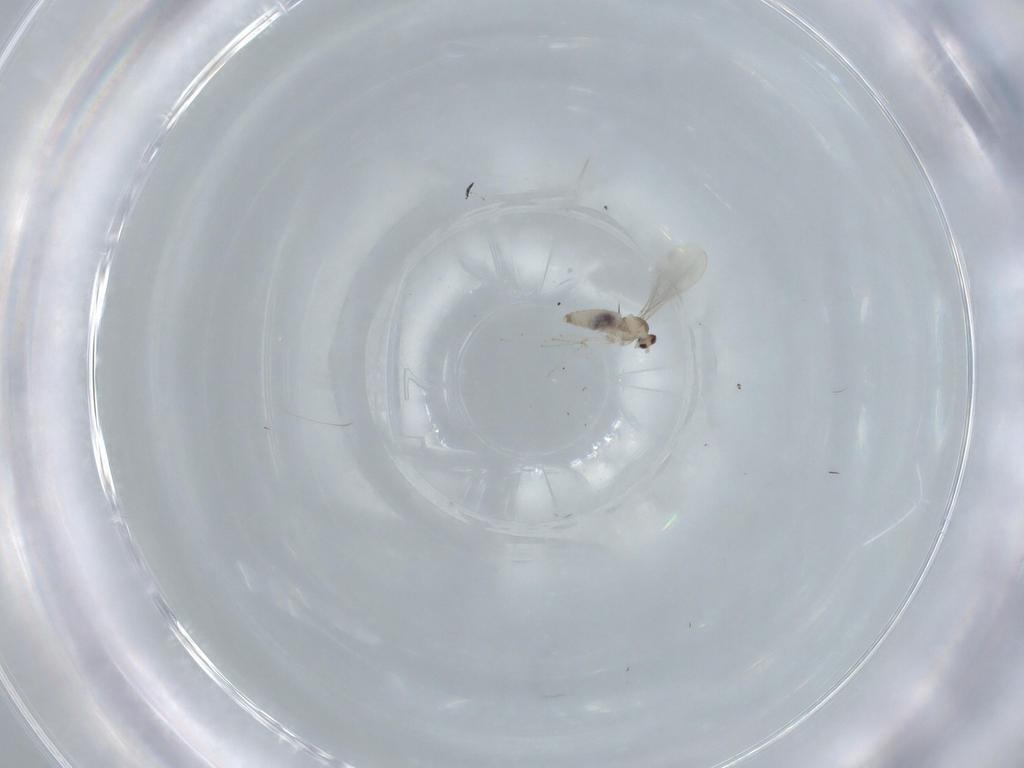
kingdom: Animalia
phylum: Arthropoda
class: Insecta
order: Diptera
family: Cecidomyiidae
